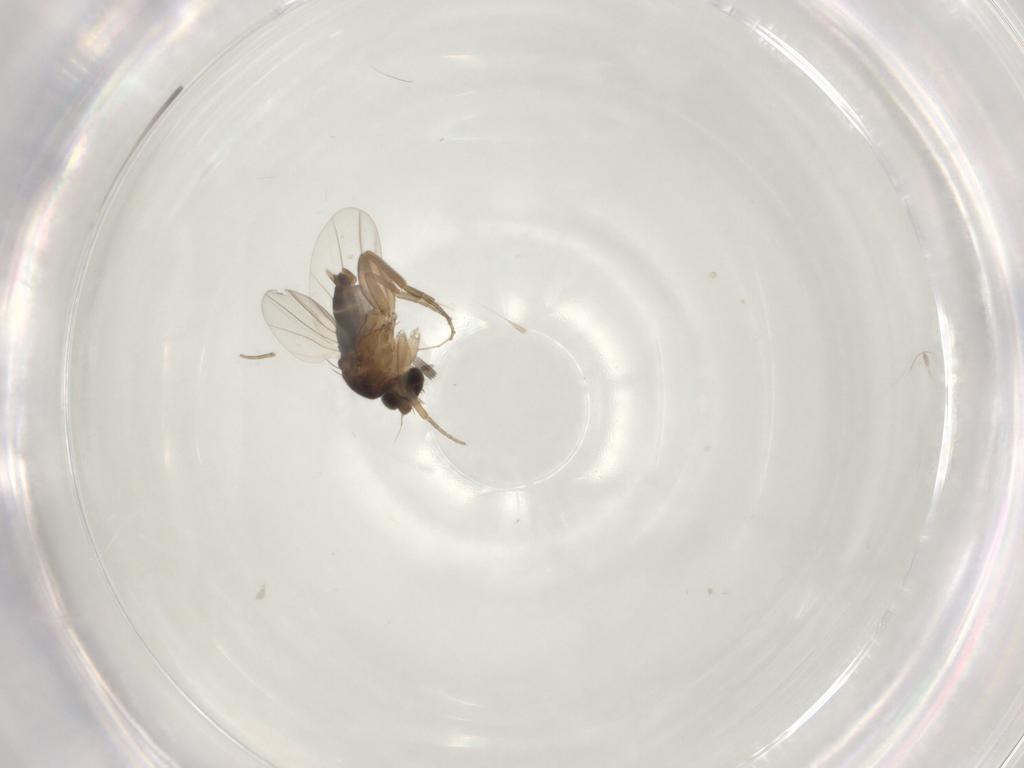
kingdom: Animalia
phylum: Arthropoda
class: Insecta
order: Diptera
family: Phoridae
